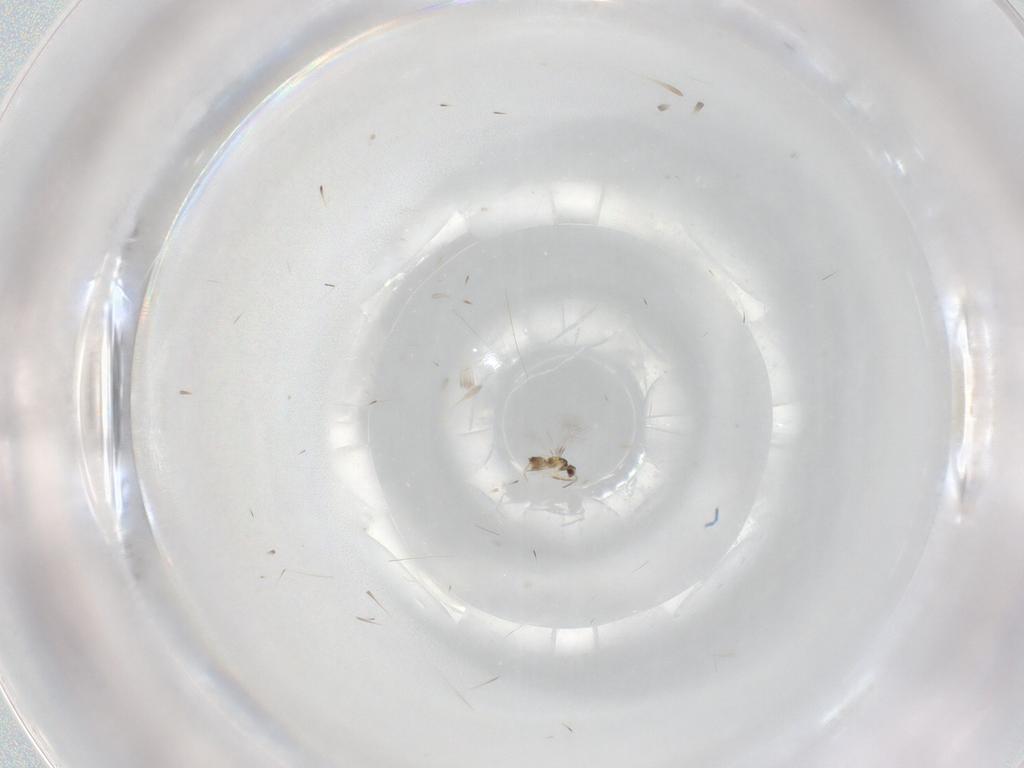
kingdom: Animalia
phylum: Arthropoda
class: Insecta
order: Hymenoptera
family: Mymaridae
